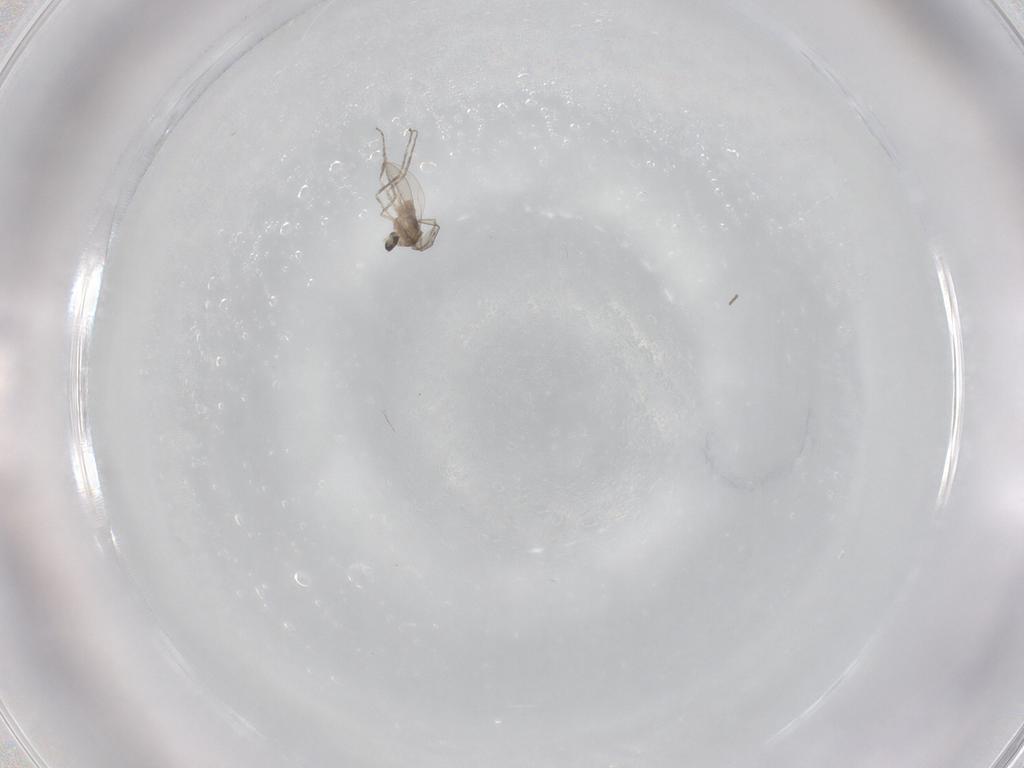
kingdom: Animalia
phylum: Arthropoda
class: Insecta
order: Diptera
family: Cecidomyiidae
